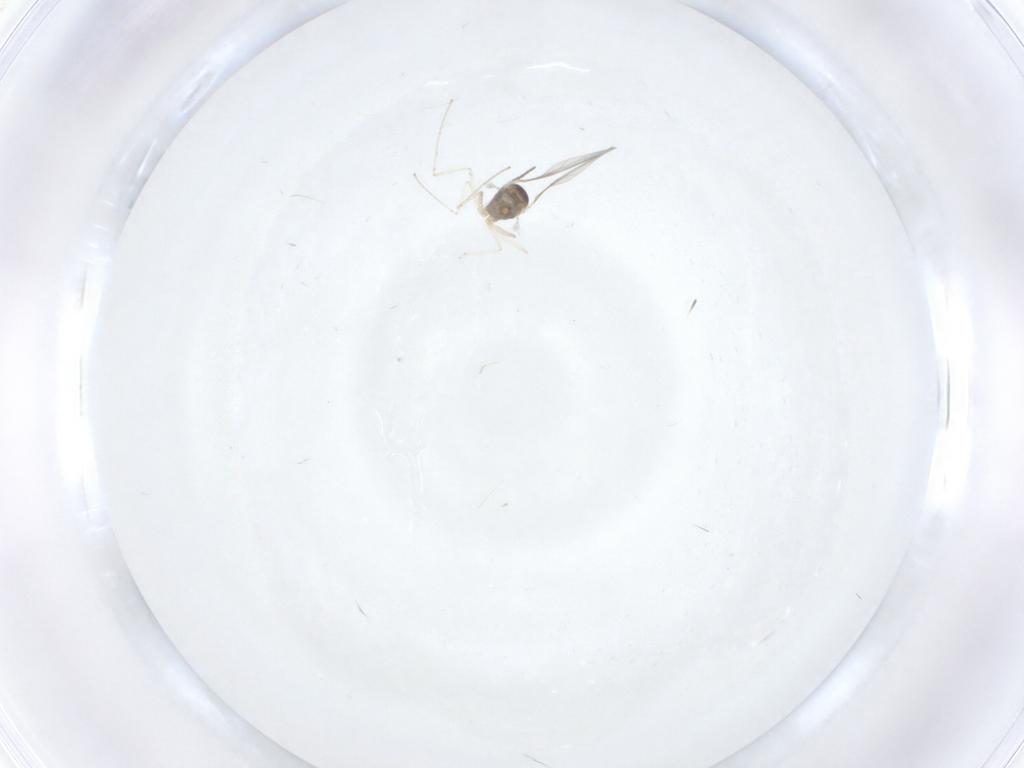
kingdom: Animalia
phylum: Arthropoda
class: Insecta
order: Diptera
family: Cecidomyiidae
